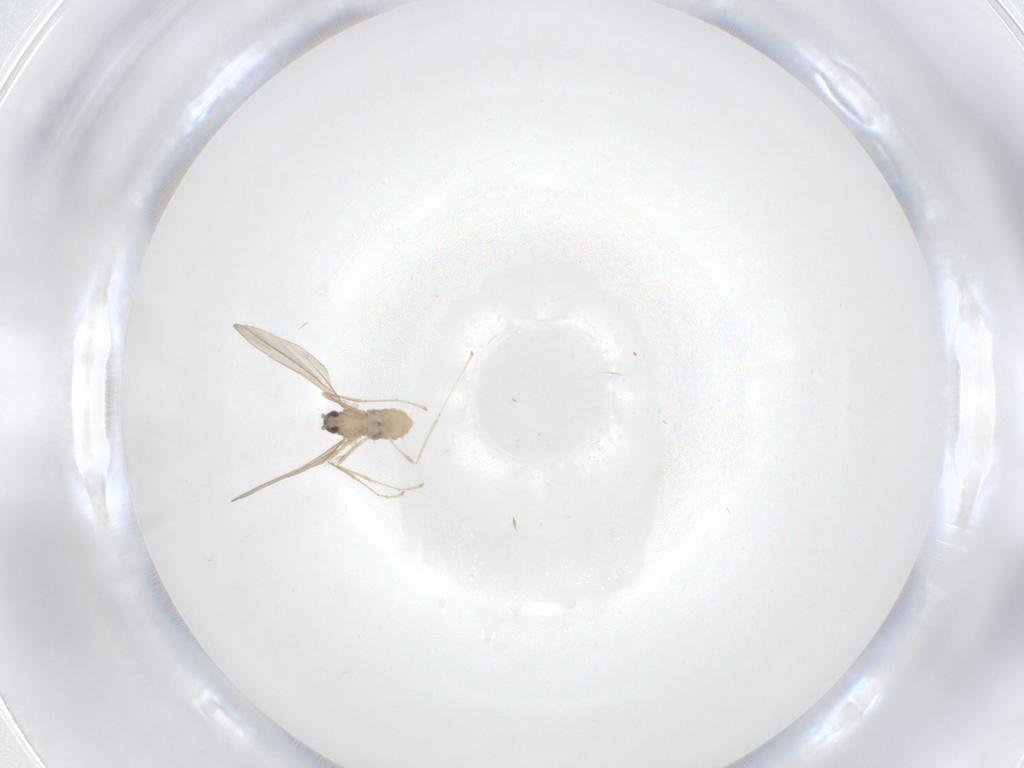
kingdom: Animalia
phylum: Arthropoda
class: Insecta
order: Diptera
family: Cecidomyiidae
